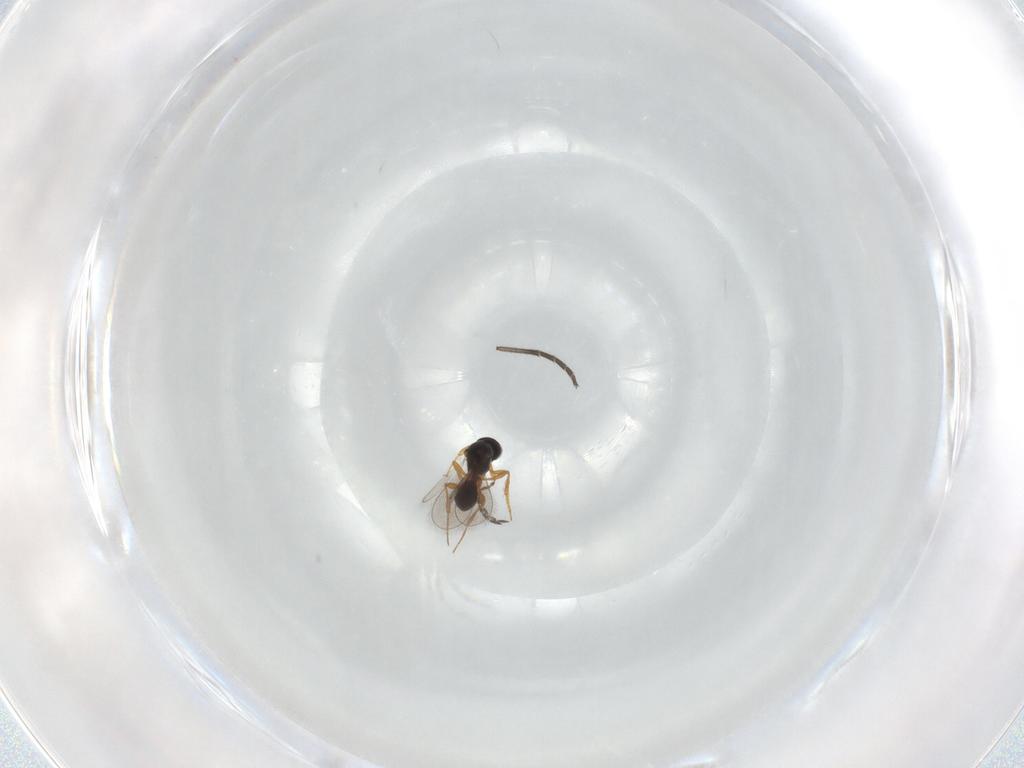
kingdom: Animalia
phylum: Arthropoda
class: Insecta
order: Hymenoptera
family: Platygastridae
